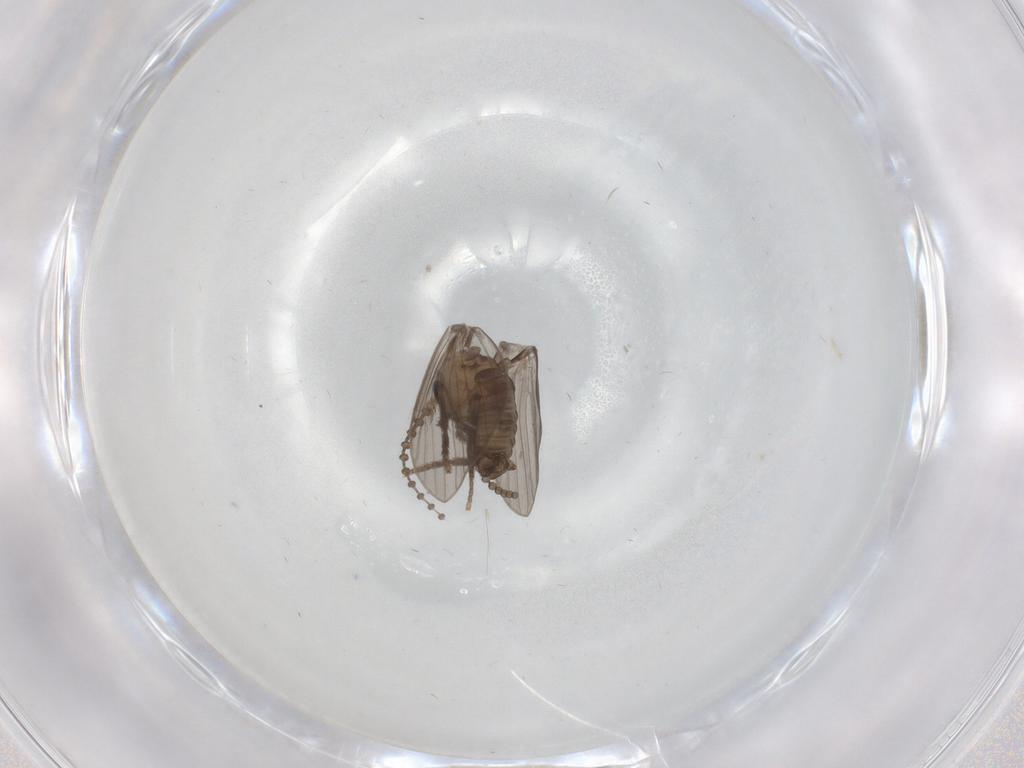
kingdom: Animalia
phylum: Arthropoda
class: Insecta
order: Diptera
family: Psychodidae
